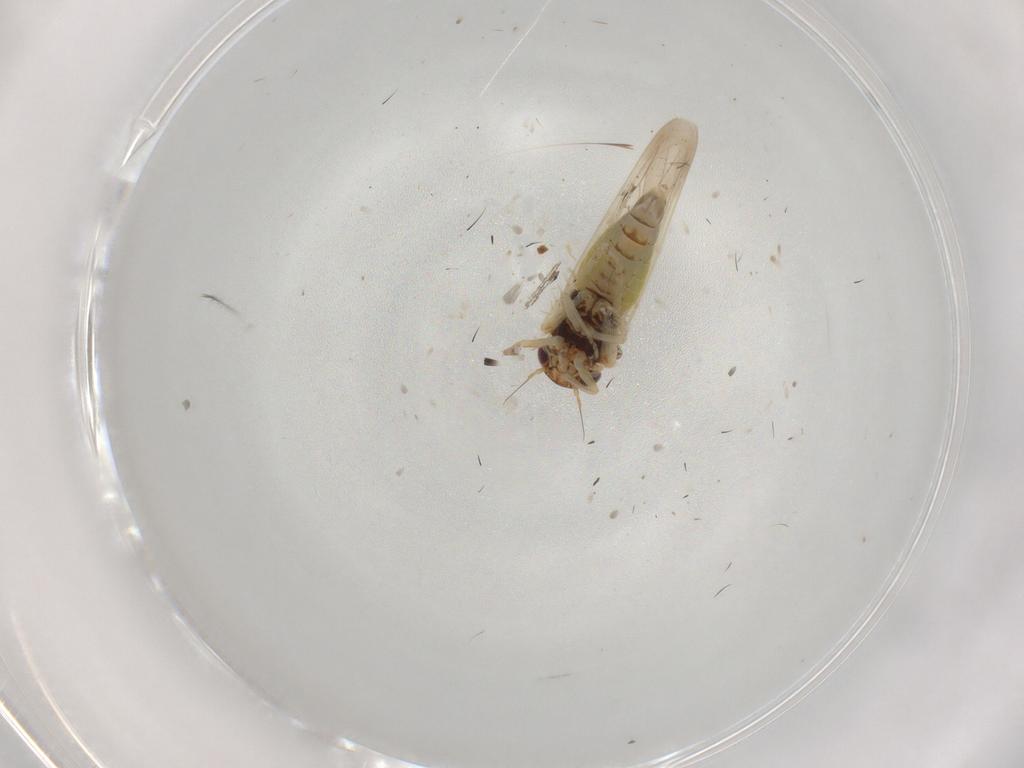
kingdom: Animalia
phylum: Arthropoda
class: Insecta
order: Hemiptera
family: Cicadellidae
